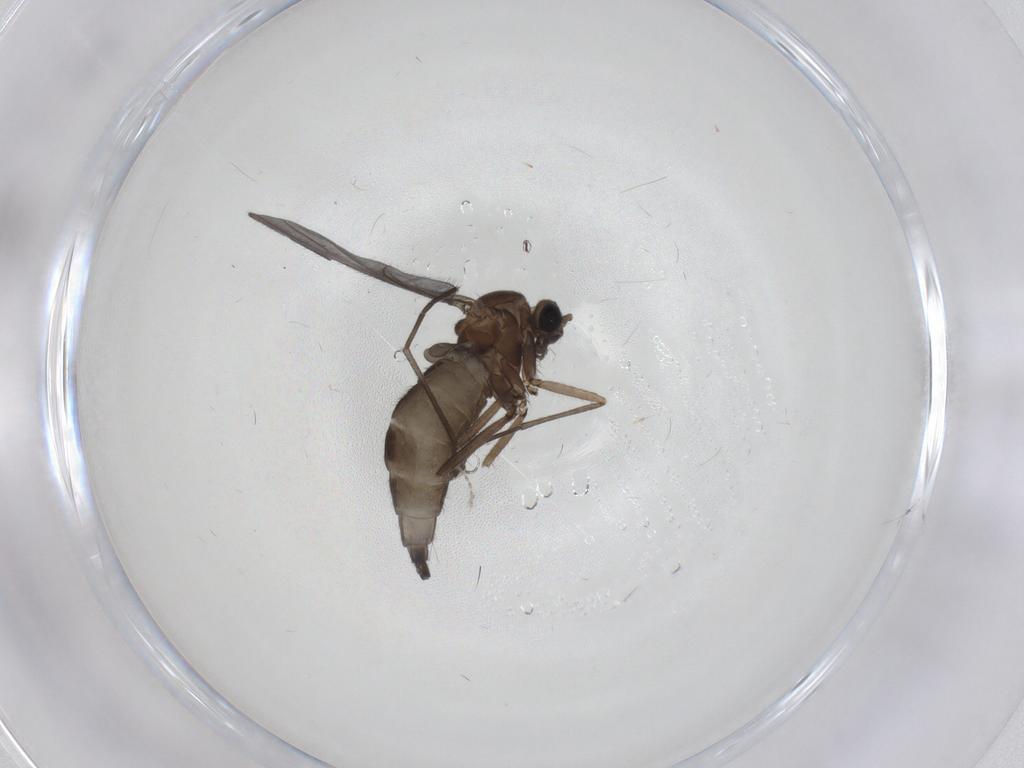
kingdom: Animalia
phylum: Arthropoda
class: Insecta
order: Diptera
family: Sciaridae
